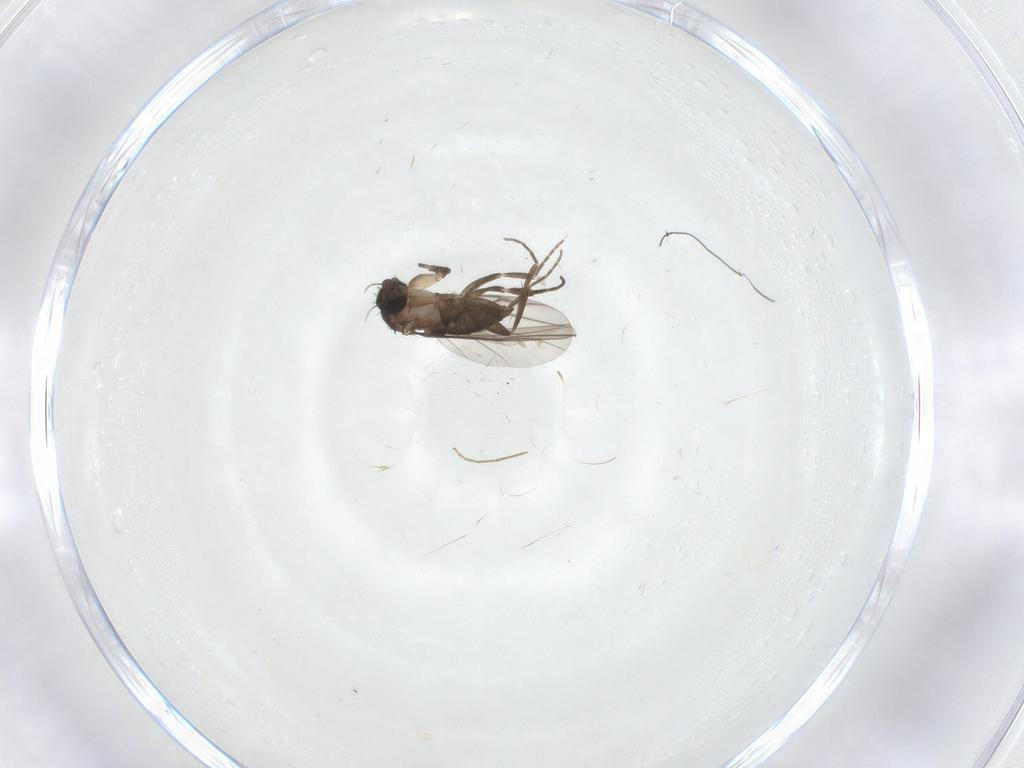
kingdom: Animalia
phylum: Arthropoda
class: Insecta
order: Diptera
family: Phoridae
